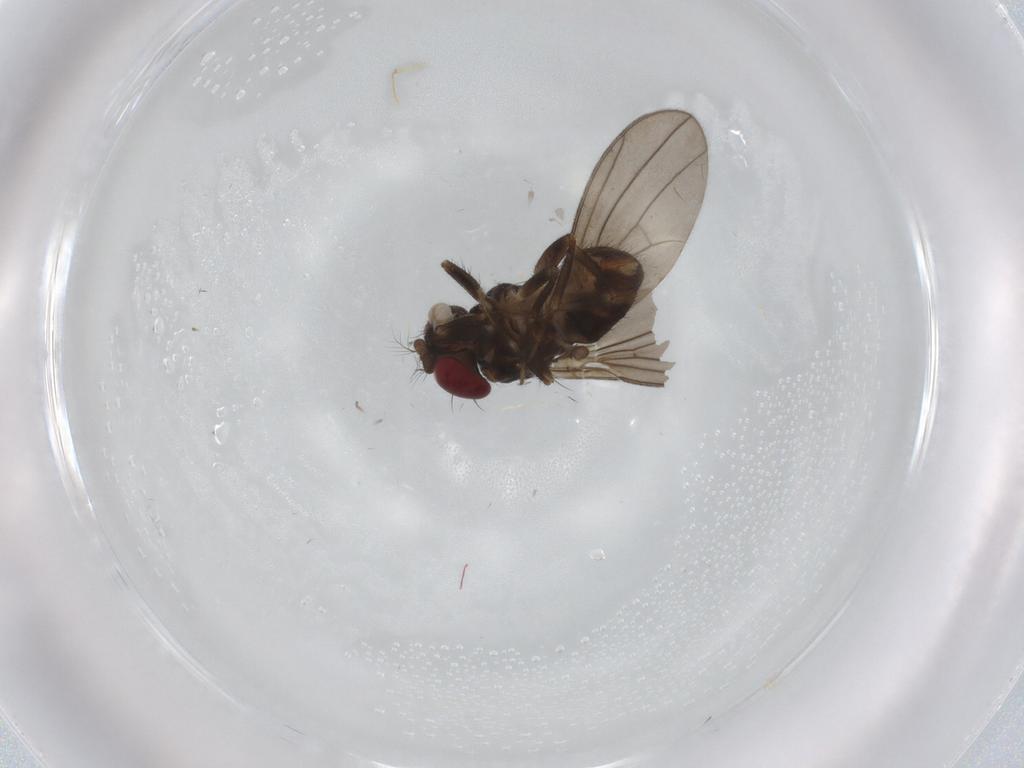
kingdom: Animalia
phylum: Arthropoda
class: Insecta
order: Diptera
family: Drosophilidae
